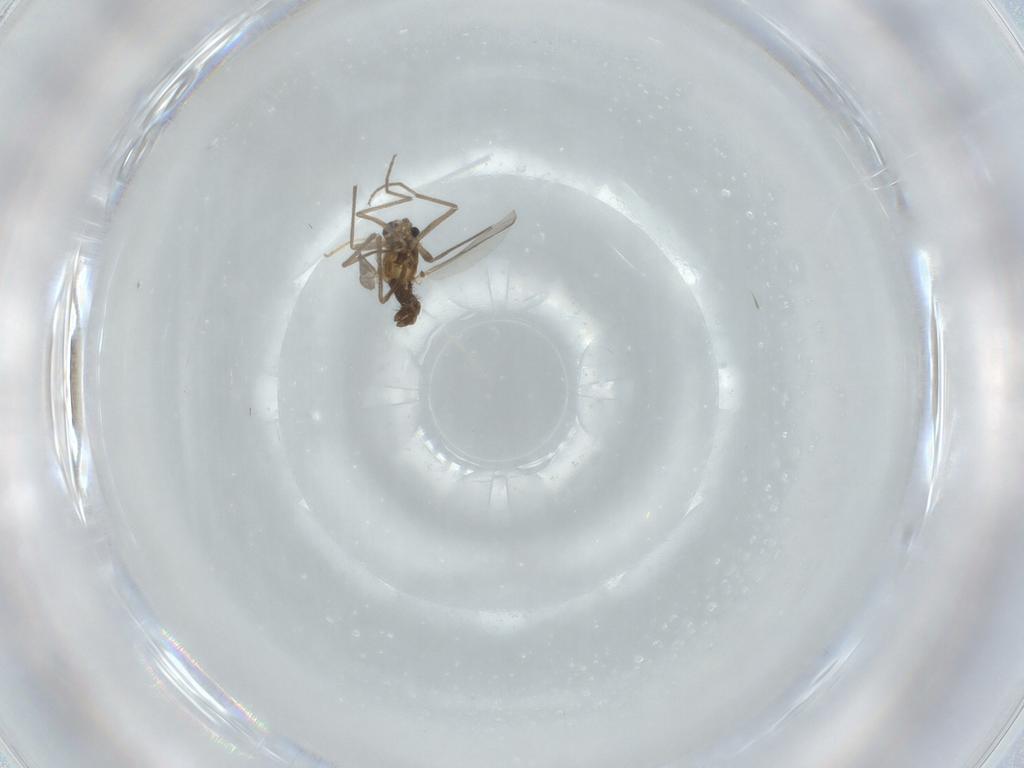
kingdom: Animalia
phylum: Arthropoda
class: Insecta
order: Diptera
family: Chironomidae
